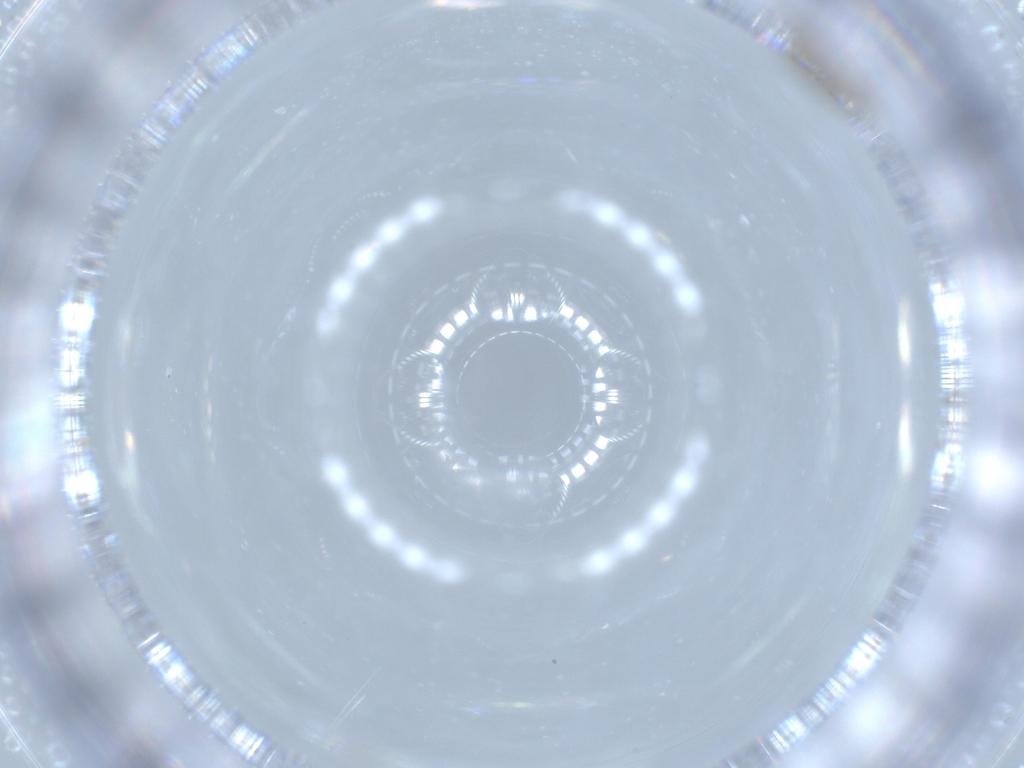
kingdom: Animalia
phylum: Arthropoda
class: Insecta
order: Diptera
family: Cecidomyiidae
